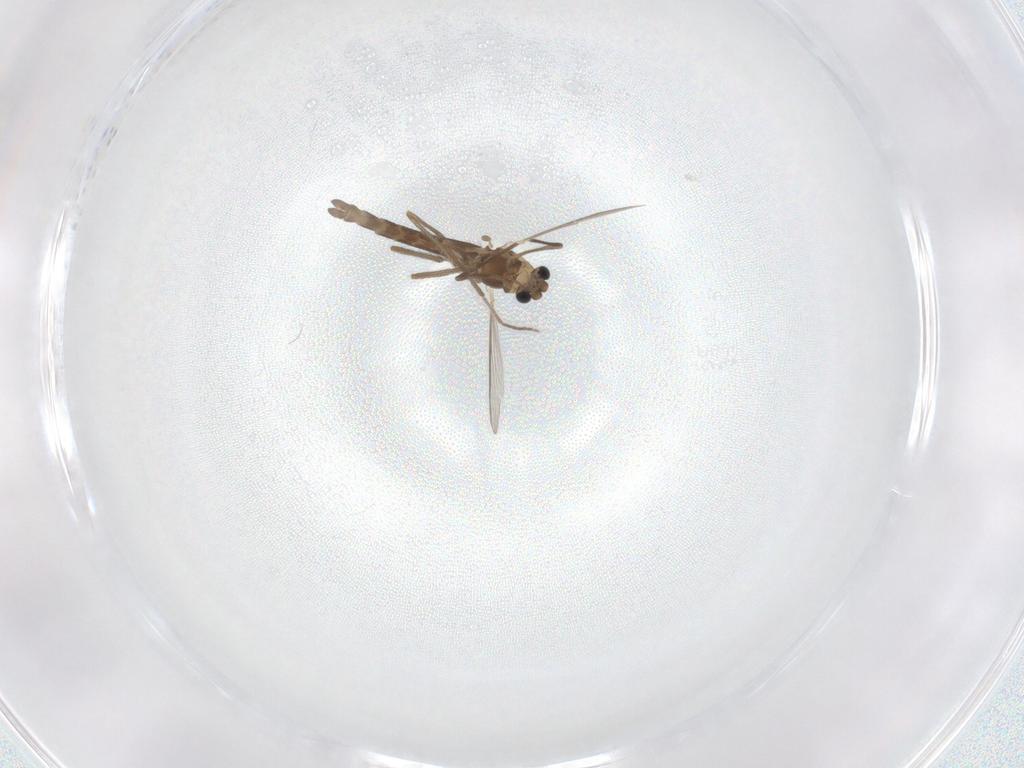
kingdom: Animalia
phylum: Arthropoda
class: Insecta
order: Diptera
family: Chironomidae
